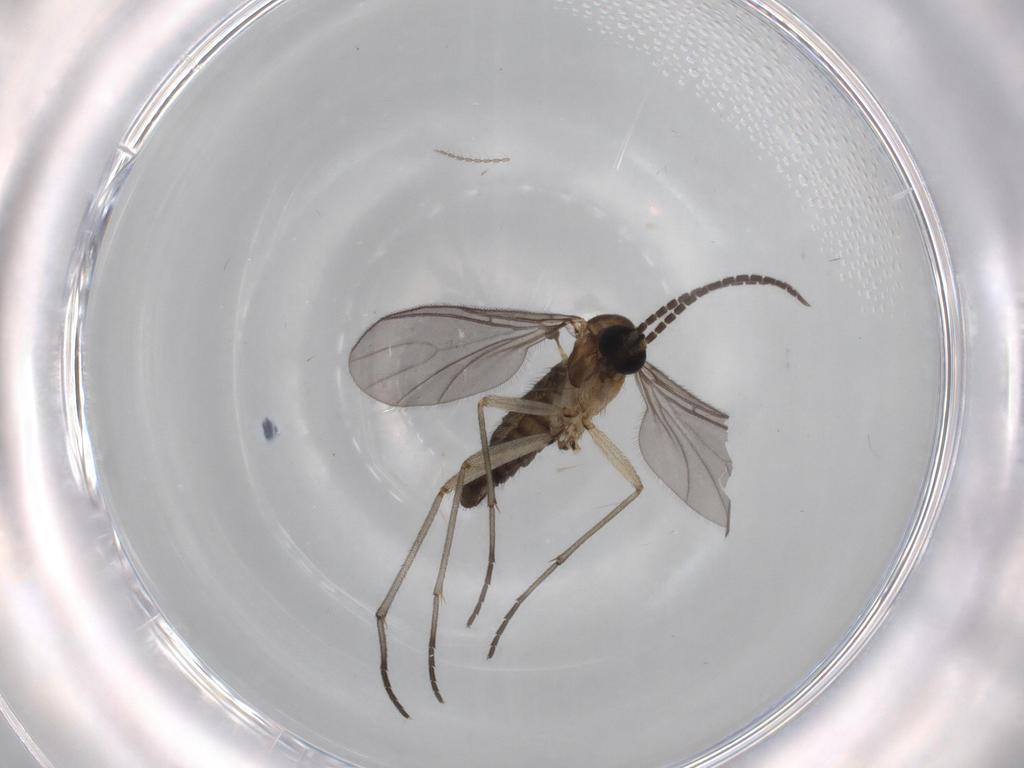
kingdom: Animalia
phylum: Arthropoda
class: Insecta
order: Diptera
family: Sciaridae
